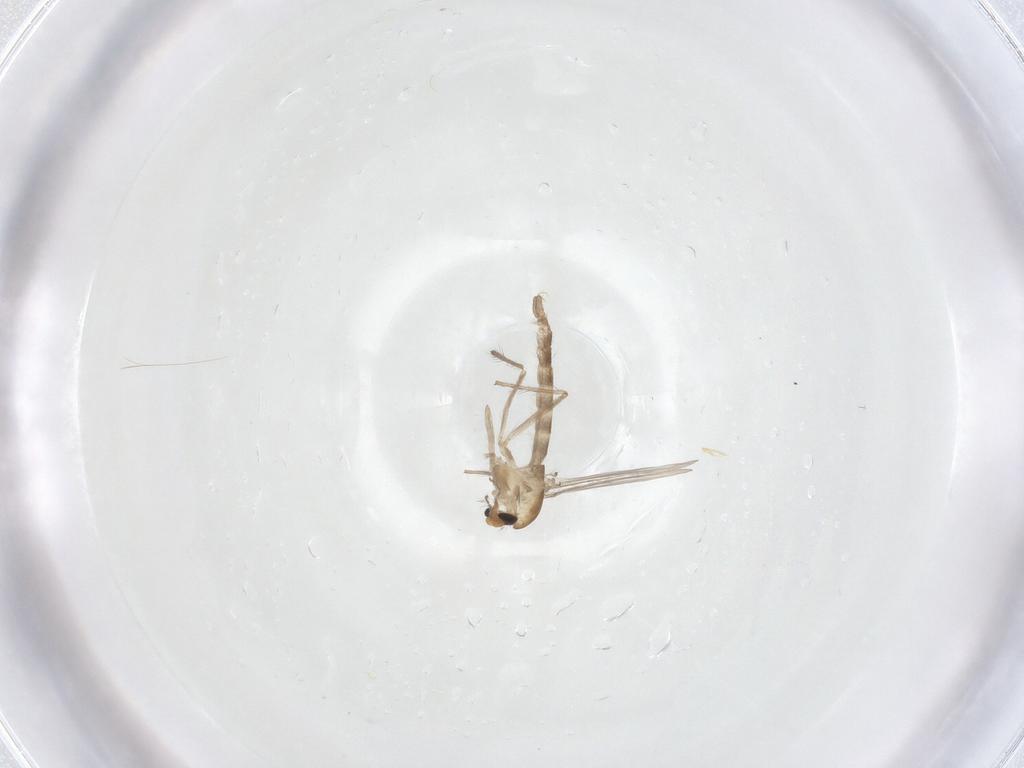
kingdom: Animalia
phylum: Arthropoda
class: Insecta
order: Diptera
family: Chironomidae
